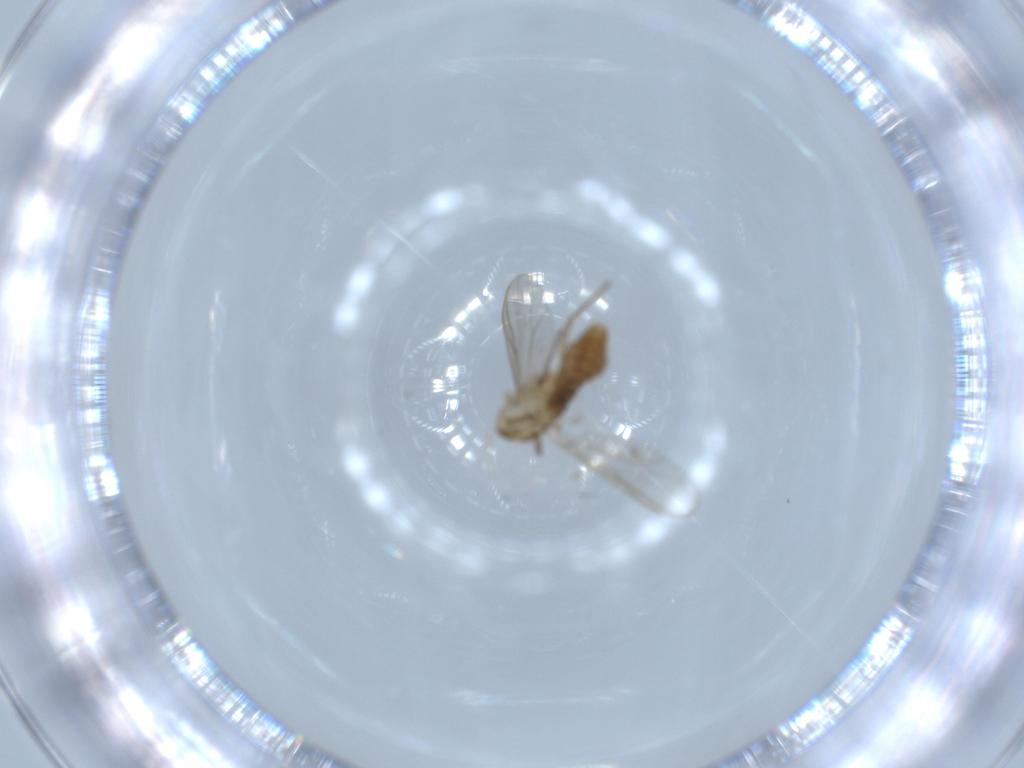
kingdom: Animalia
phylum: Arthropoda
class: Insecta
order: Diptera
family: Chironomidae
